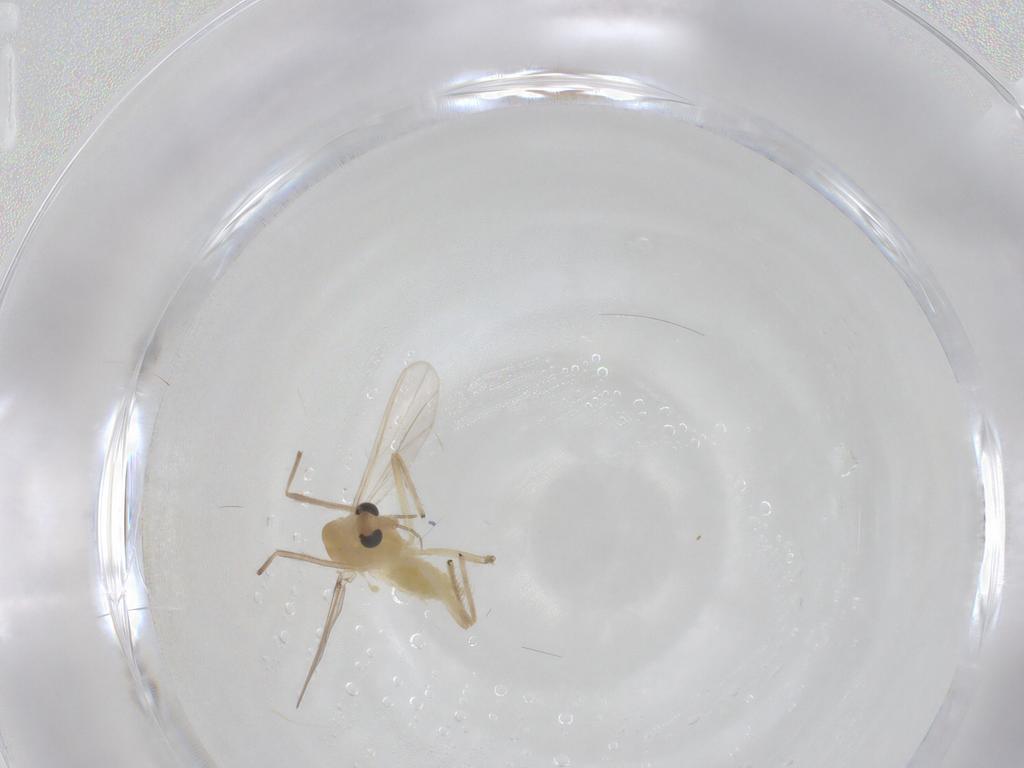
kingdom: Animalia
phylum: Arthropoda
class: Insecta
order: Diptera
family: Chironomidae
